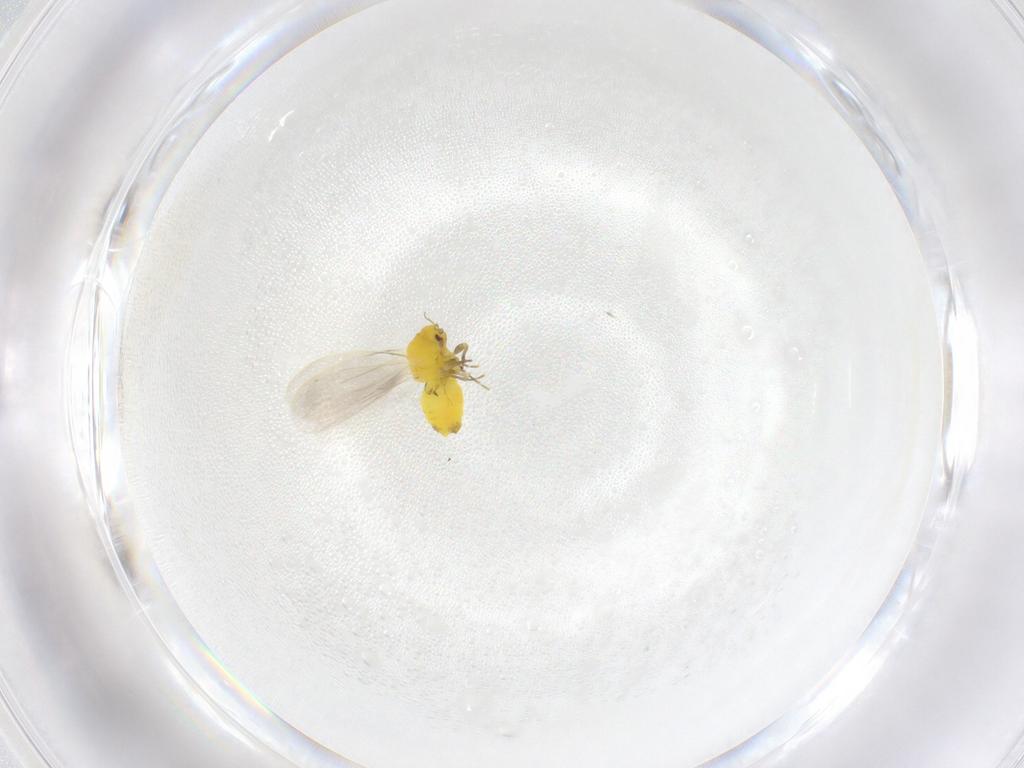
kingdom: Animalia
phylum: Arthropoda
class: Insecta
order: Hemiptera
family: Aleyrodidae
